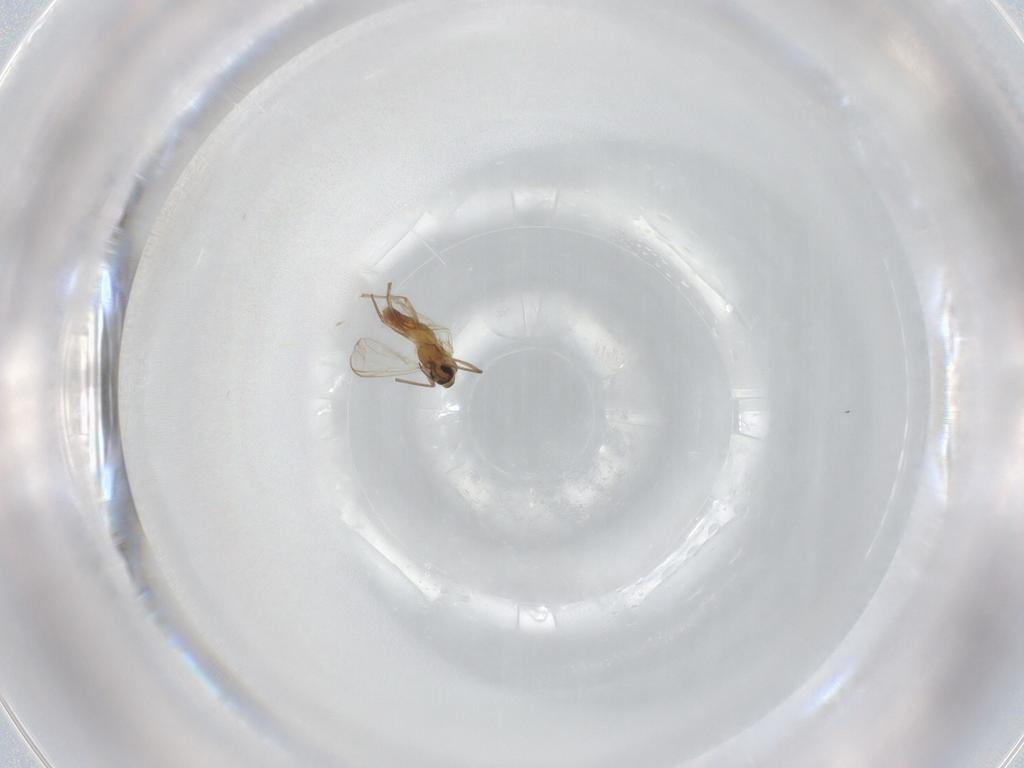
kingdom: Animalia
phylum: Arthropoda
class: Insecta
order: Diptera
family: Chironomidae
